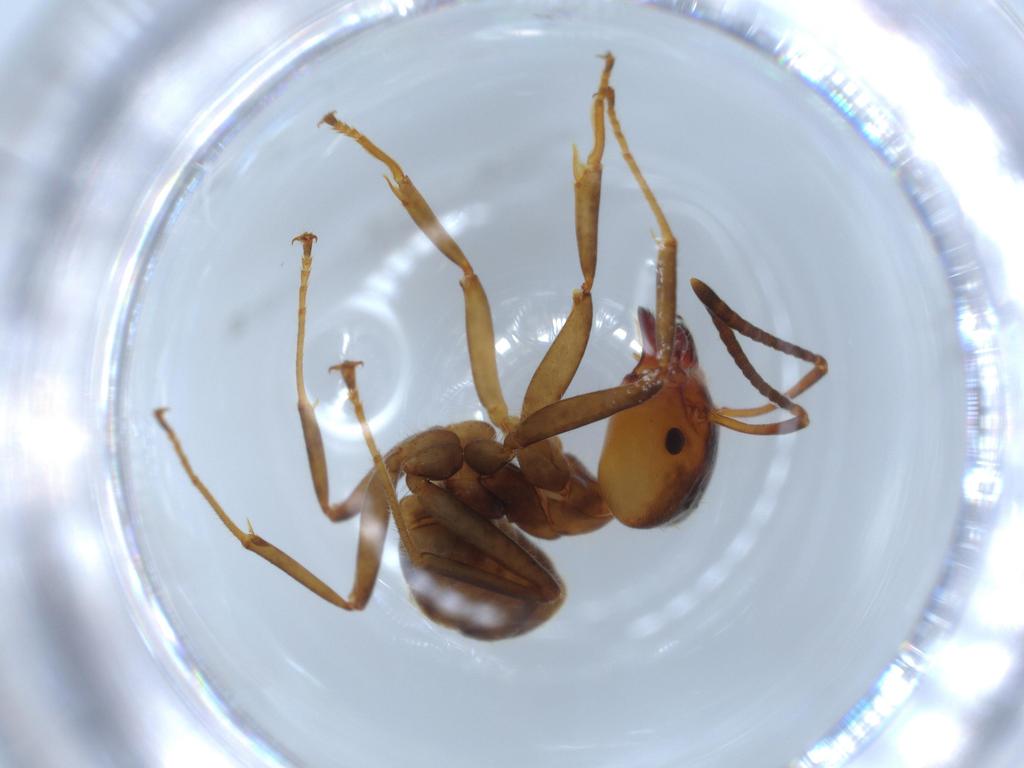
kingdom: Animalia
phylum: Arthropoda
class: Insecta
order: Hymenoptera
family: Formicidae
